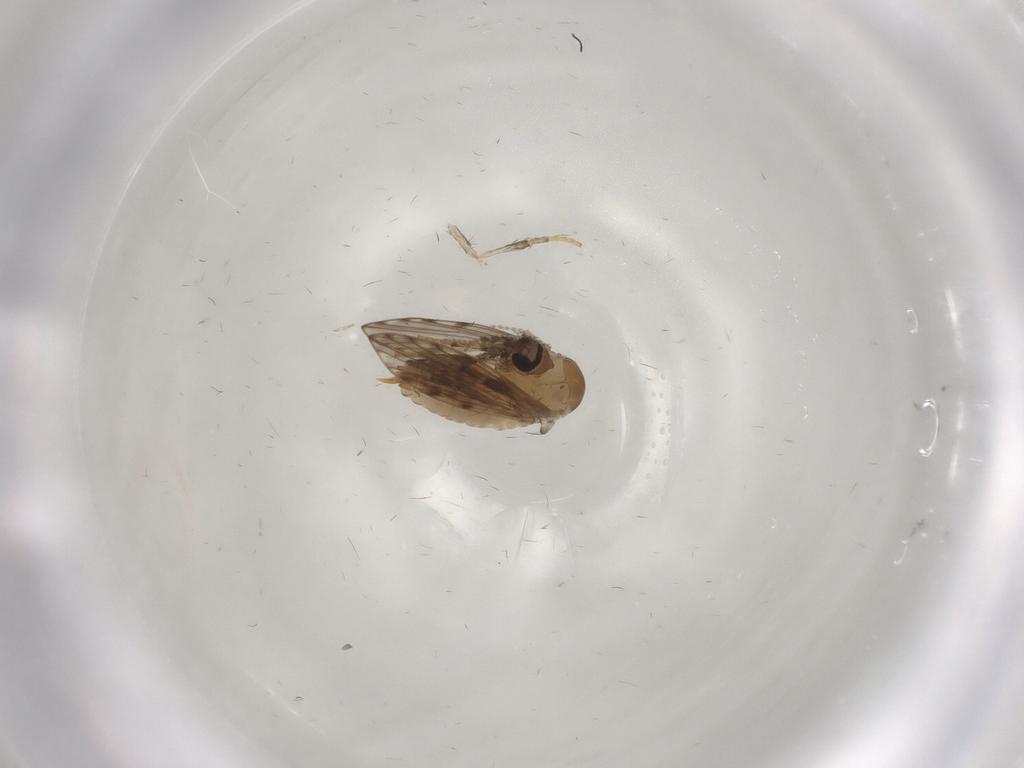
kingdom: Animalia
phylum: Arthropoda
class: Insecta
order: Diptera
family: Psychodidae
